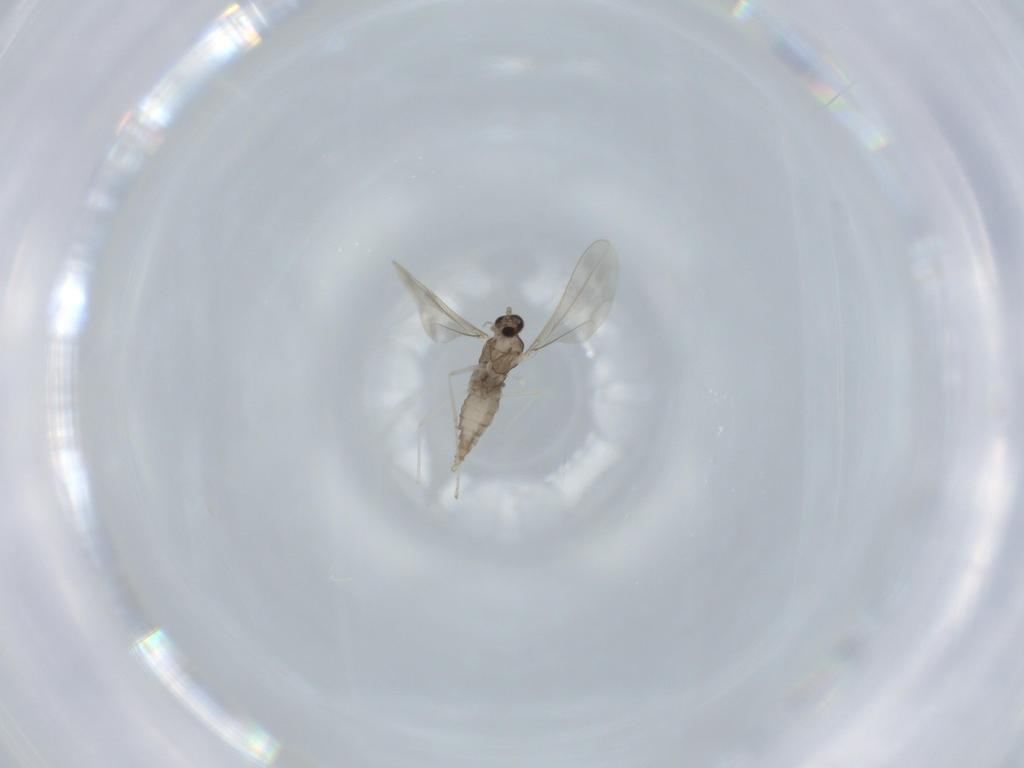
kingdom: Animalia
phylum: Arthropoda
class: Insecta
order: Diptera
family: Cecidomyiidae
